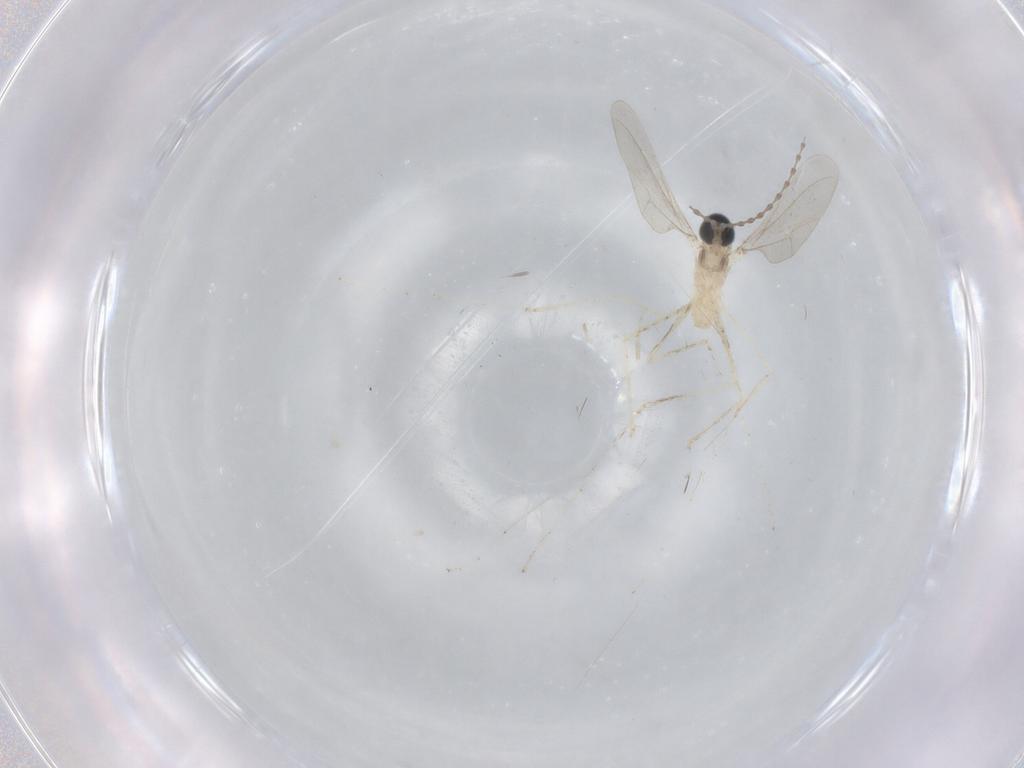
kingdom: Animalia
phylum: Arthropoda
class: Insecta
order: Diptera
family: Cecidomyiidae
